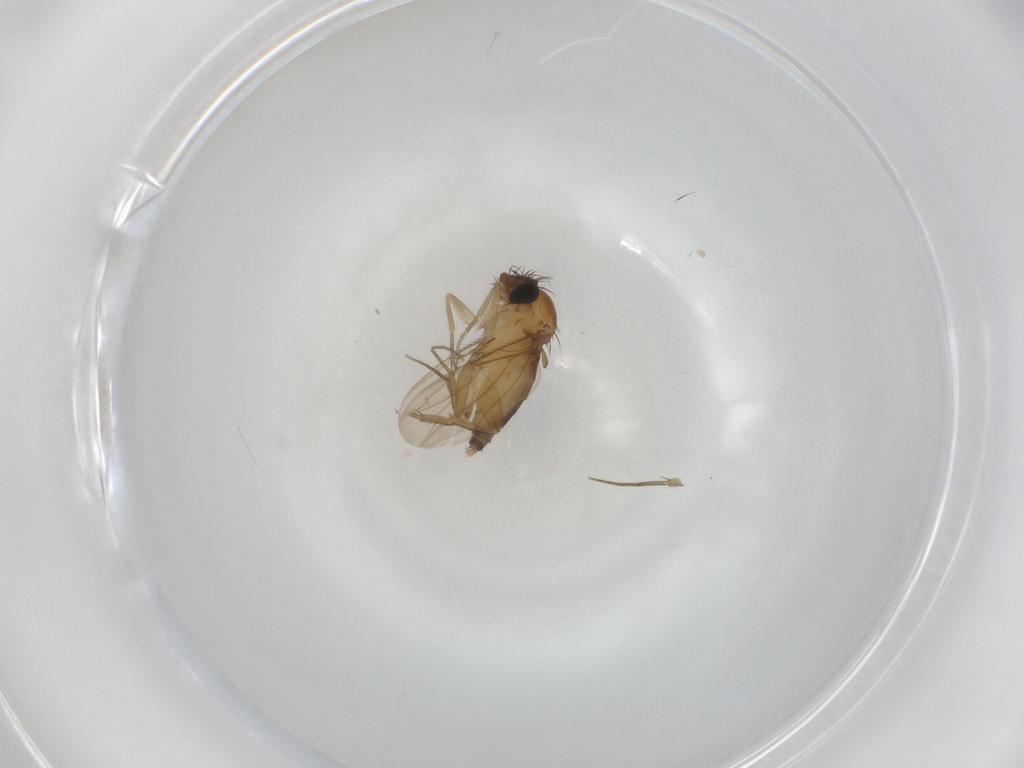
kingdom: Animalia
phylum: Arthropoda
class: Insecta
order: Diptera
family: Phoridae
